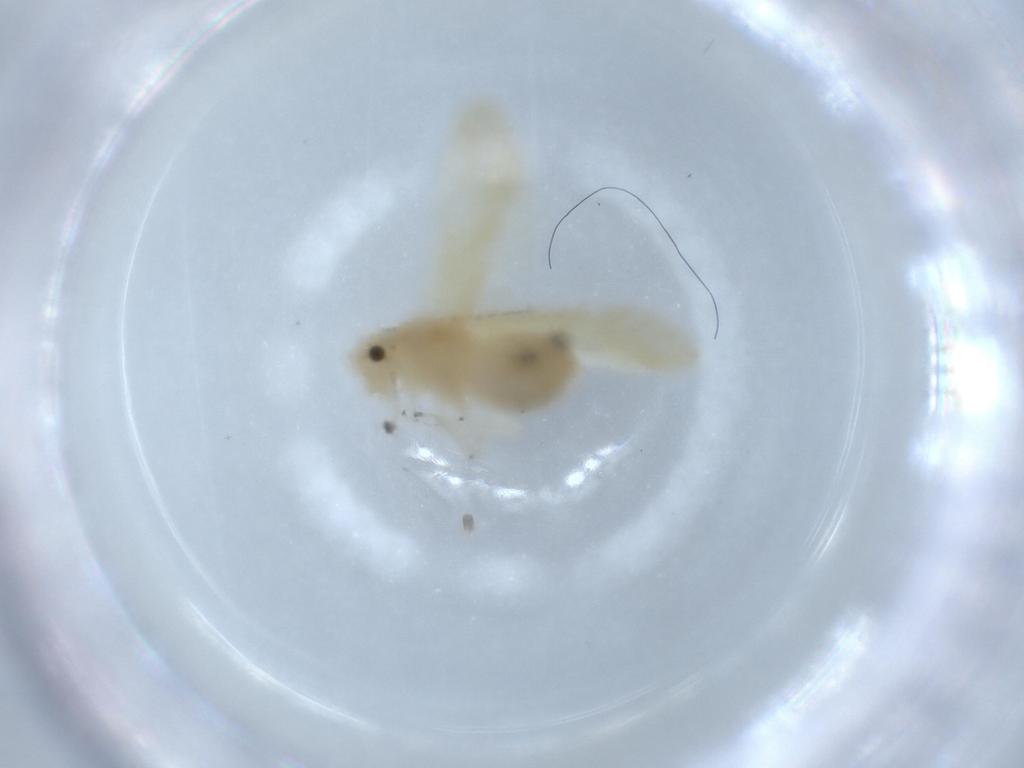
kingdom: Animalia
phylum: Arthropoda
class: Insecta
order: Psocodea
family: Caeciliusidae
